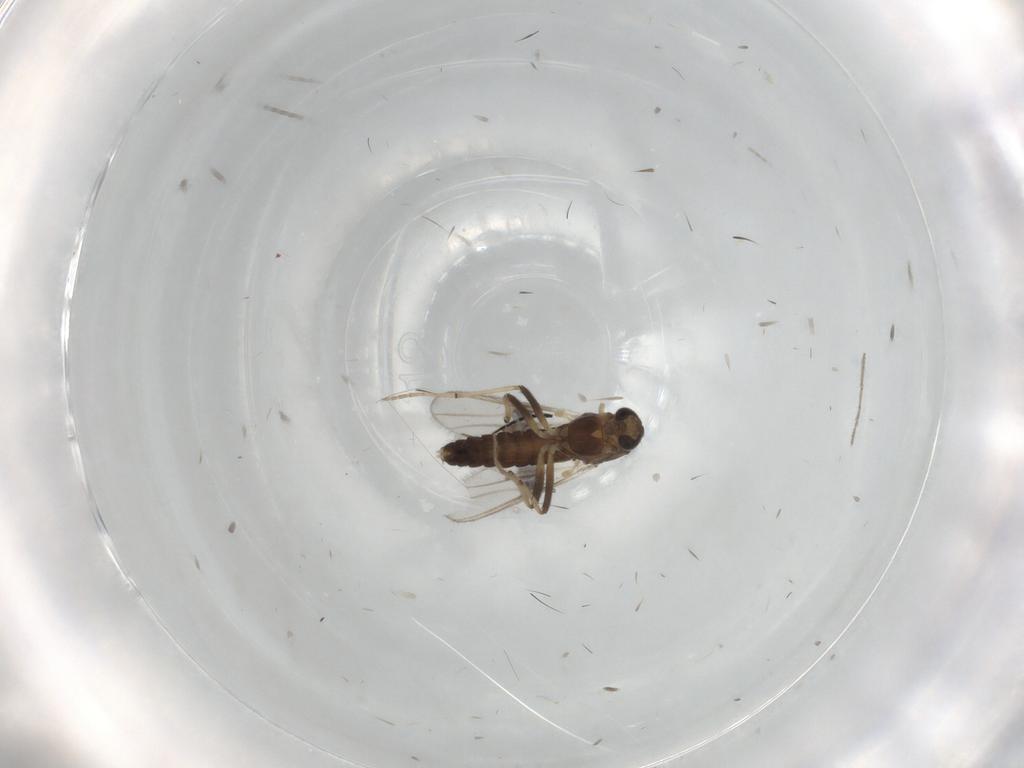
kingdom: Animalia
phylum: Arthropoda
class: Insecta
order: Diptera
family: Chironomidae
